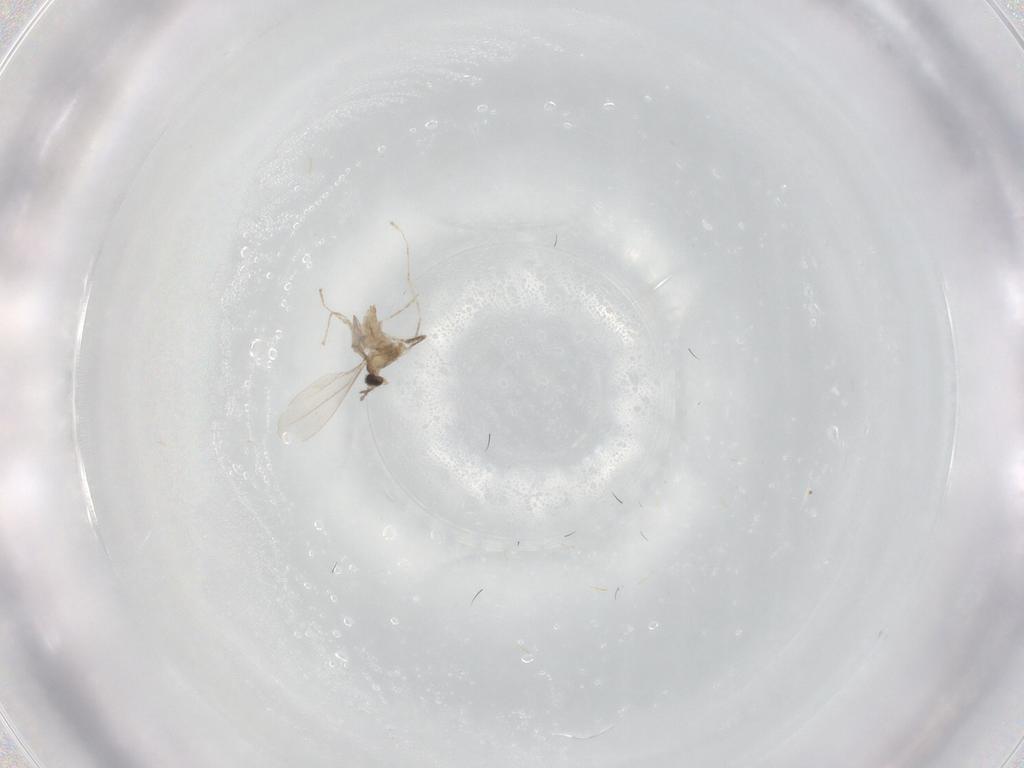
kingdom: Animalia
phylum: Arthropoda
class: Insecta
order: Diptera
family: Cecidomyiidae
